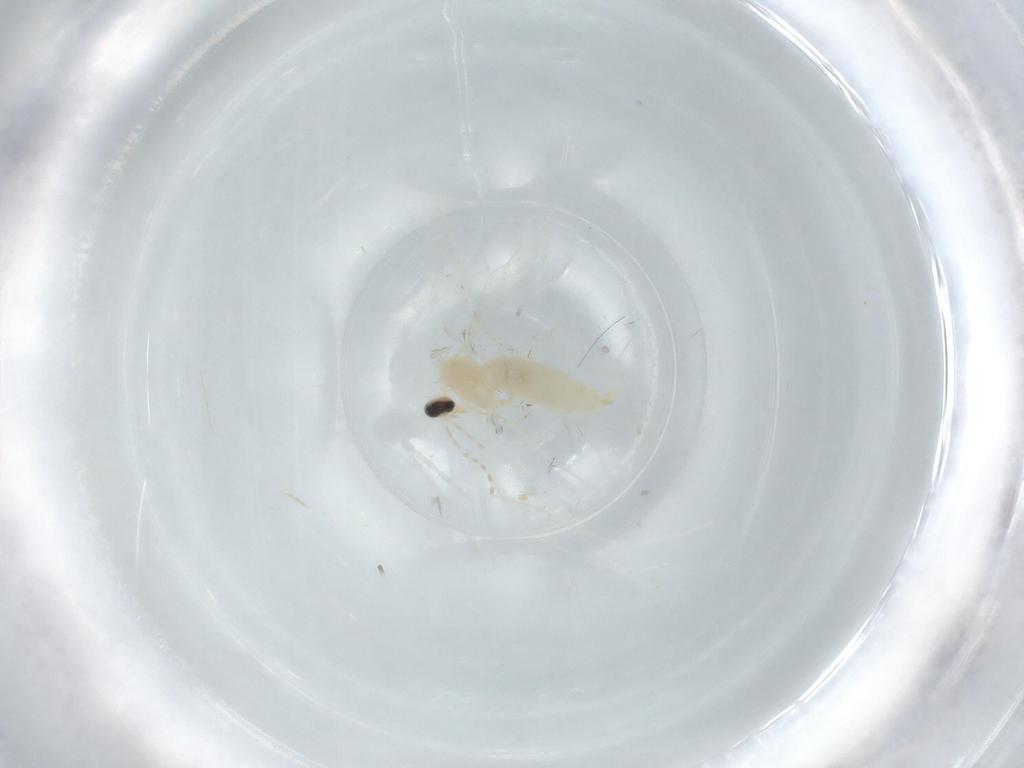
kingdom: Animalia
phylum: Arthropoda
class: Insecta
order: Diptera
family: Cecidomyiidae
